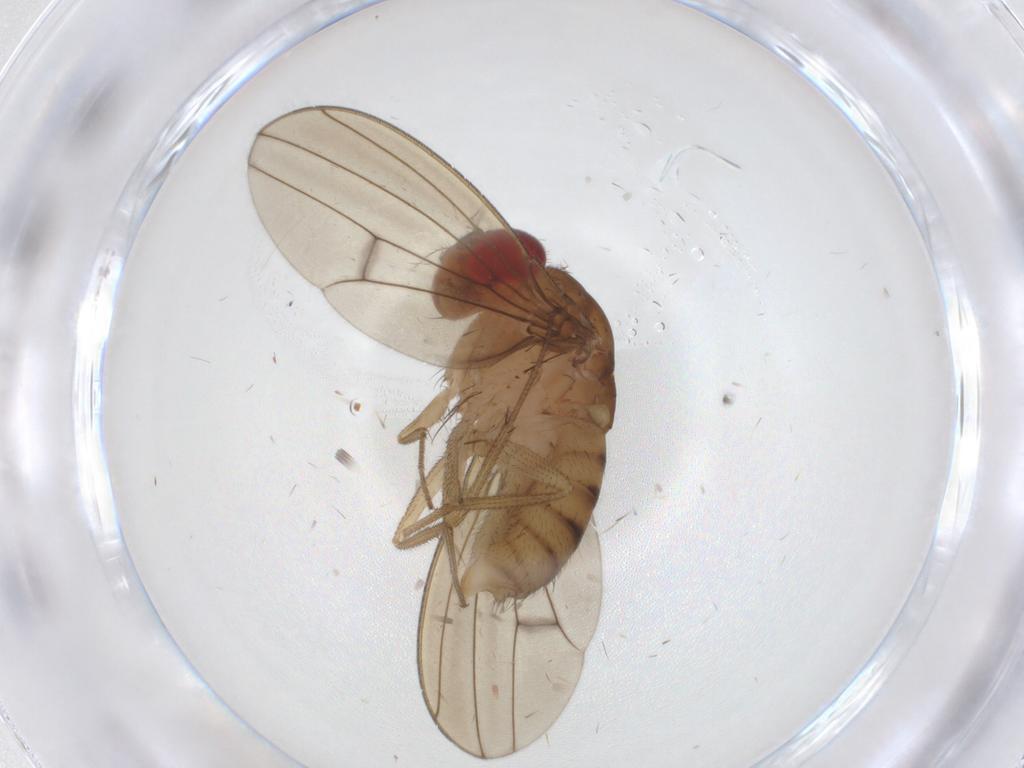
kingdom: Animalia
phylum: Arthropoda
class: Insecta
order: Diptera
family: Drosophilidae
